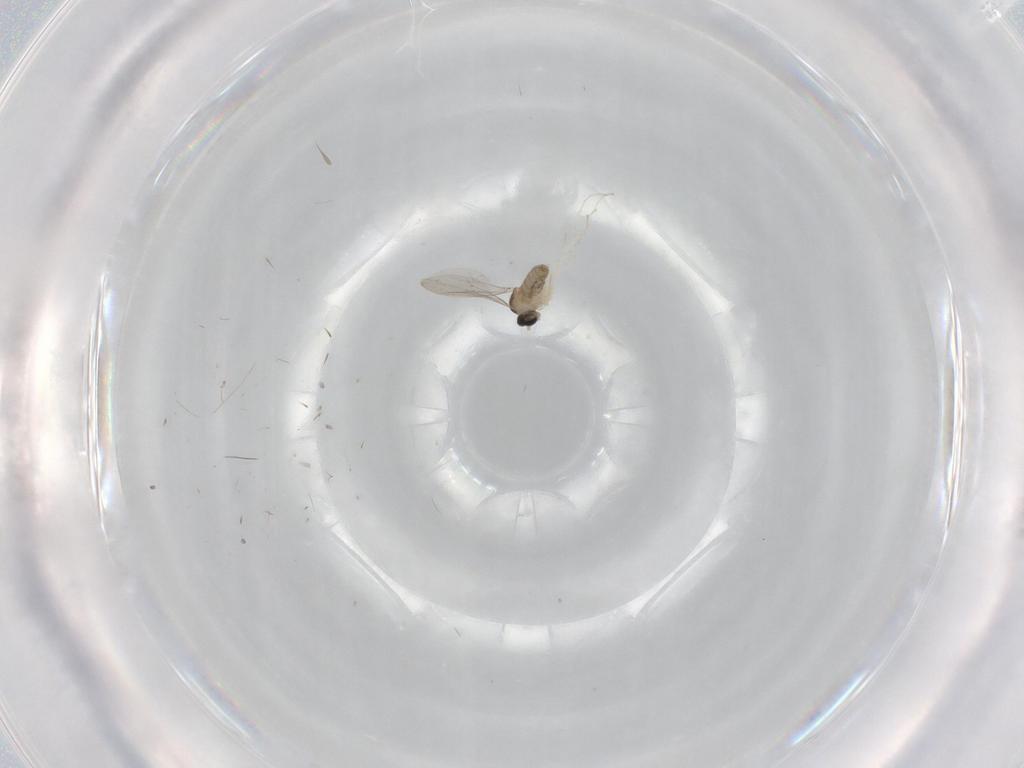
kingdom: Animalia
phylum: Arthropoda
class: Insecta
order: Diptera
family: Cecidomyiidae
